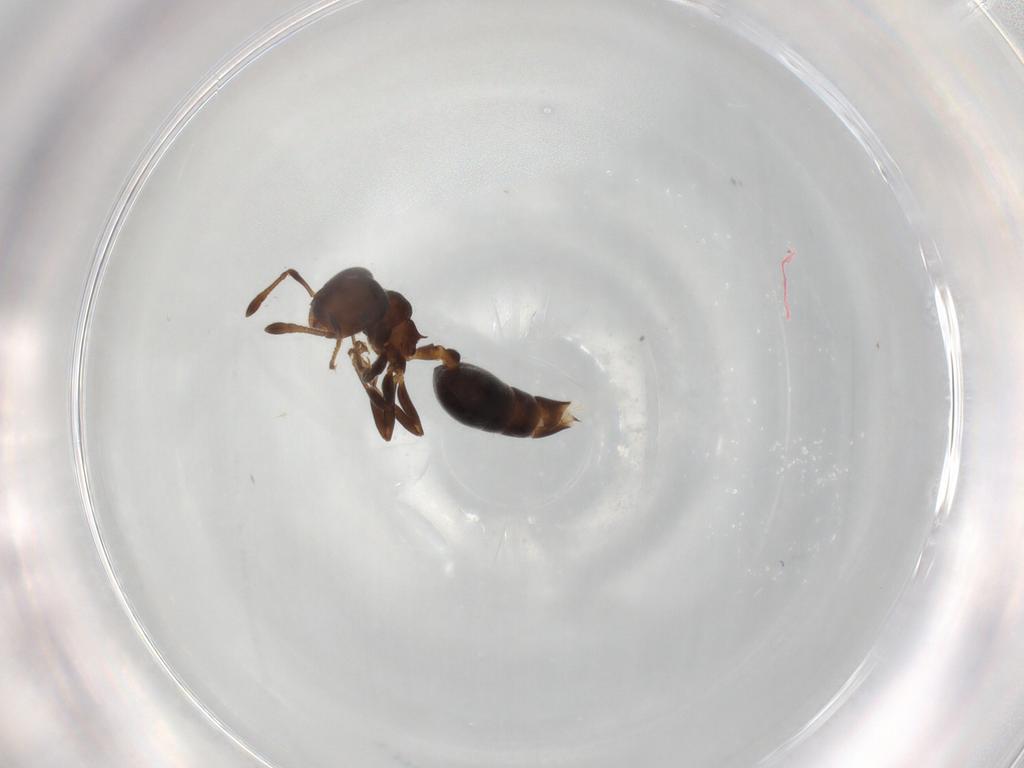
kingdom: Animalia
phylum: Arthropoda
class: Insecta
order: Hymenoptera
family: Formicidae
